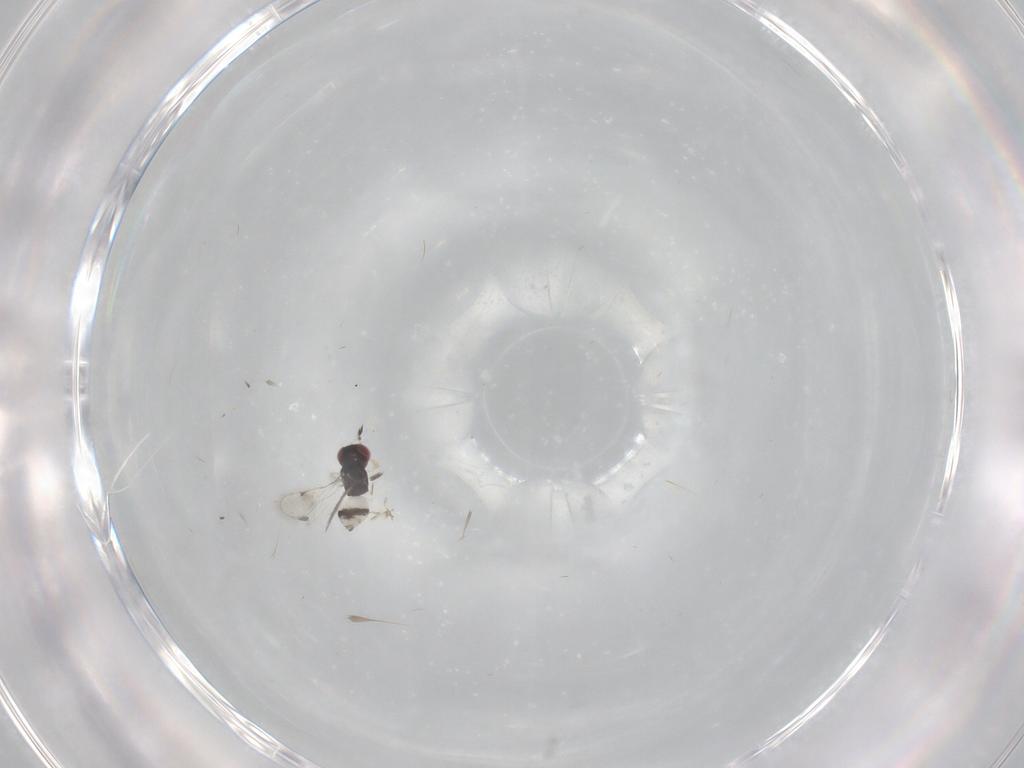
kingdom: Animalia
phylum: Arthropoda
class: Insecta
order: Hymenoptera
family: Eulophidae
